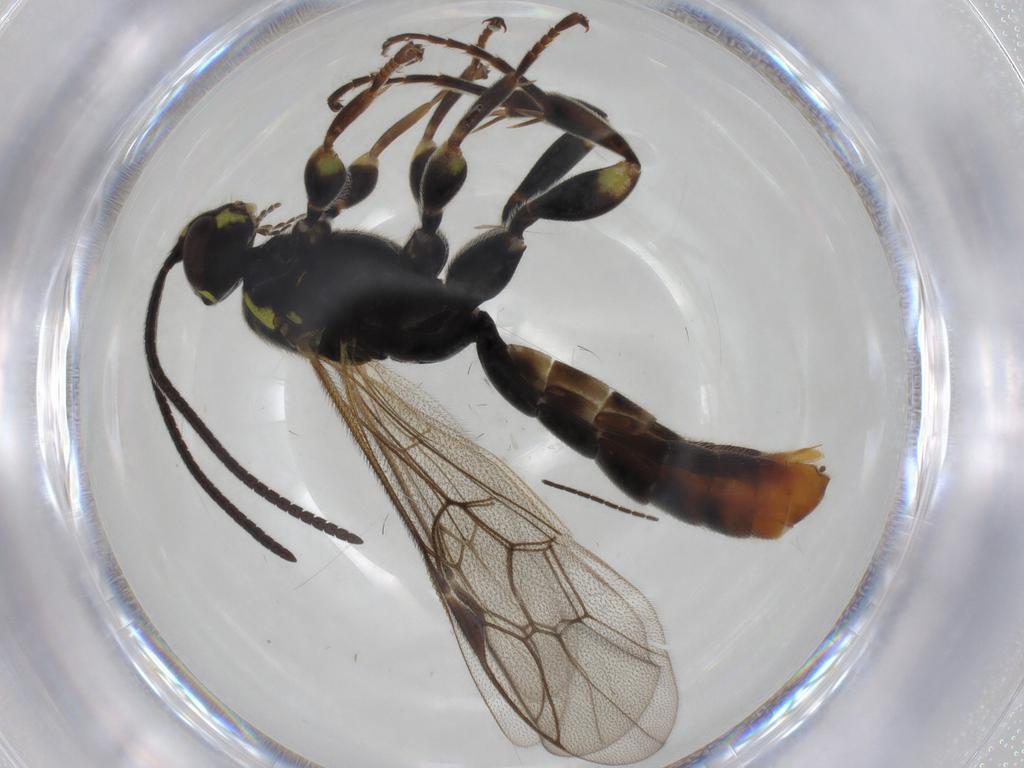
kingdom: Animalia
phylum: Arthropoda
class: Insecta
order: Hymenoptera
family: Ichneumonidae
